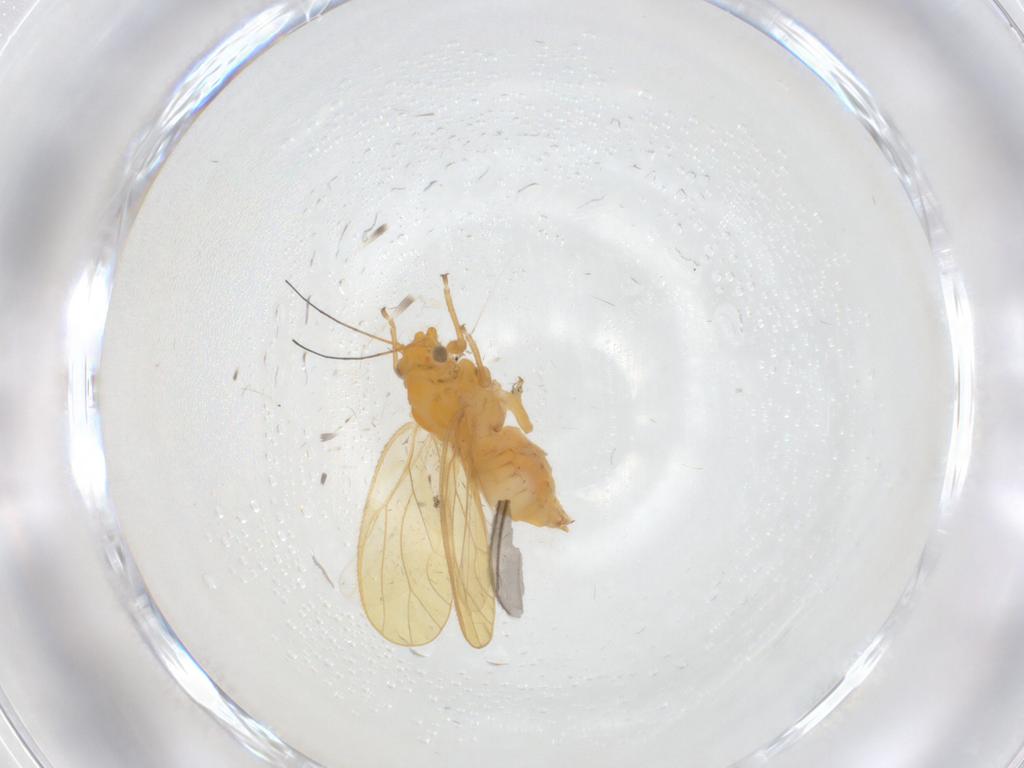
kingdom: Animalia
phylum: Arthropoda
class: Insecta
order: Hemiptera
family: Psyllidae
